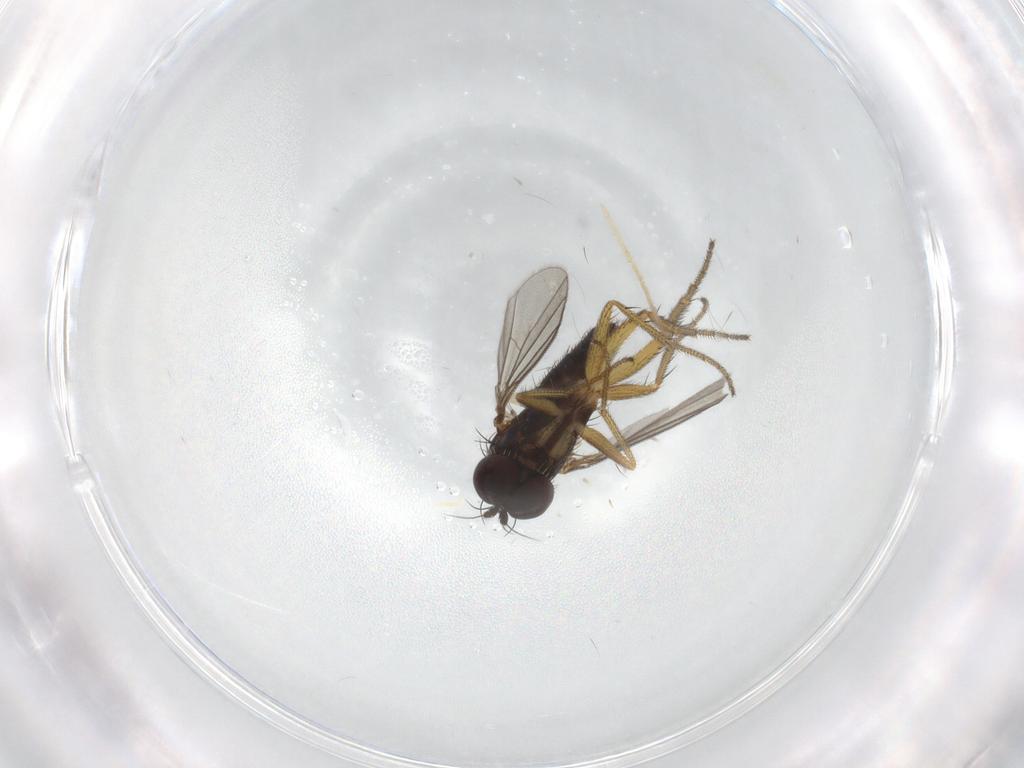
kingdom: Animalia
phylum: Arthropoda
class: Insecta
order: Diptera
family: Dolichopodidae
